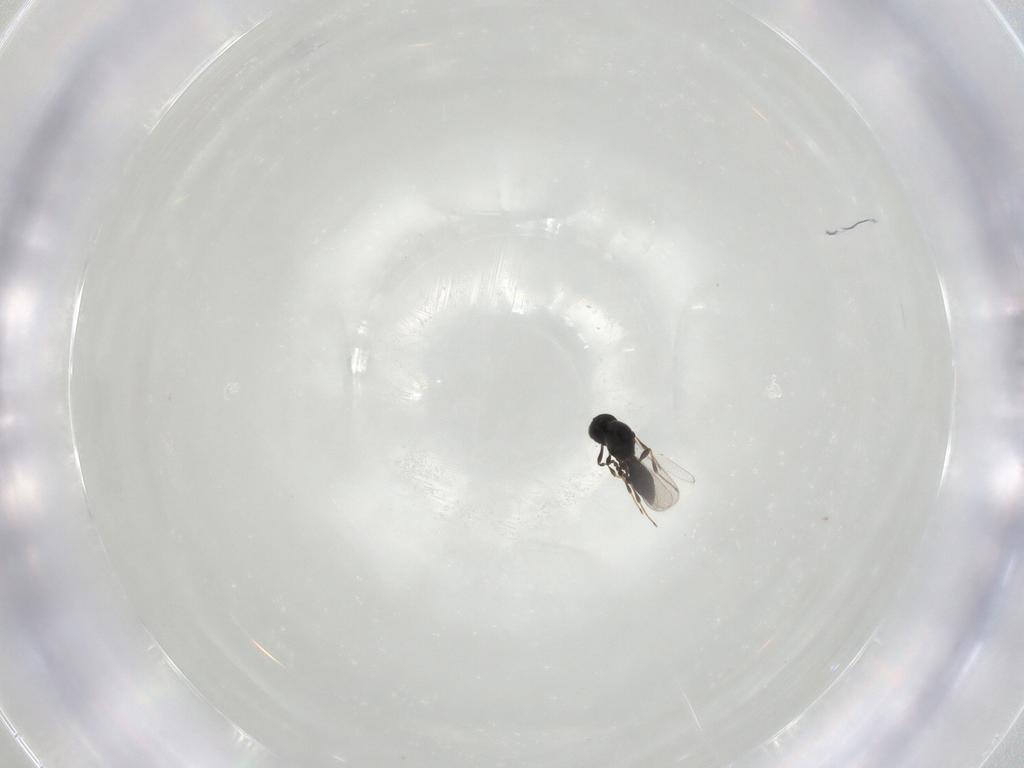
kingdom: Animalia
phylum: Arthropoda
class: Insecta
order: Hymenoptera
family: Platygastridae
